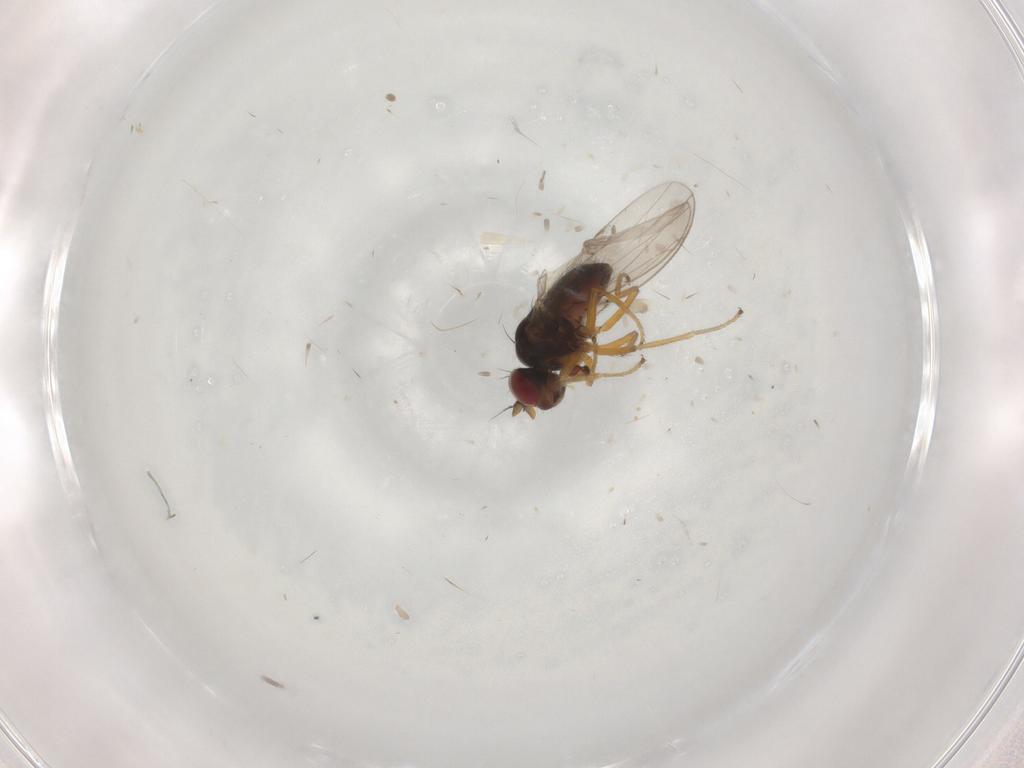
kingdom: Animalia
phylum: Arthropoda
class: Insecta
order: Diptera
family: Ephydridae
